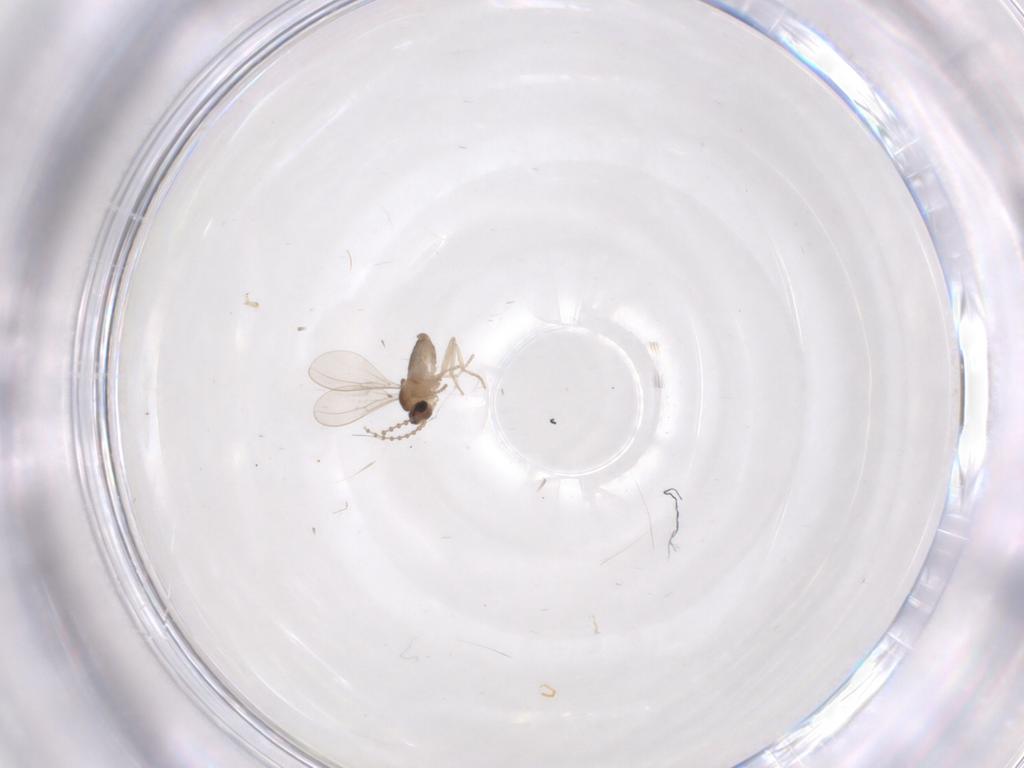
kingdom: Animalia
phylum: Arthropoda
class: Insecta
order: Diptera
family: Cecidomyiidae
